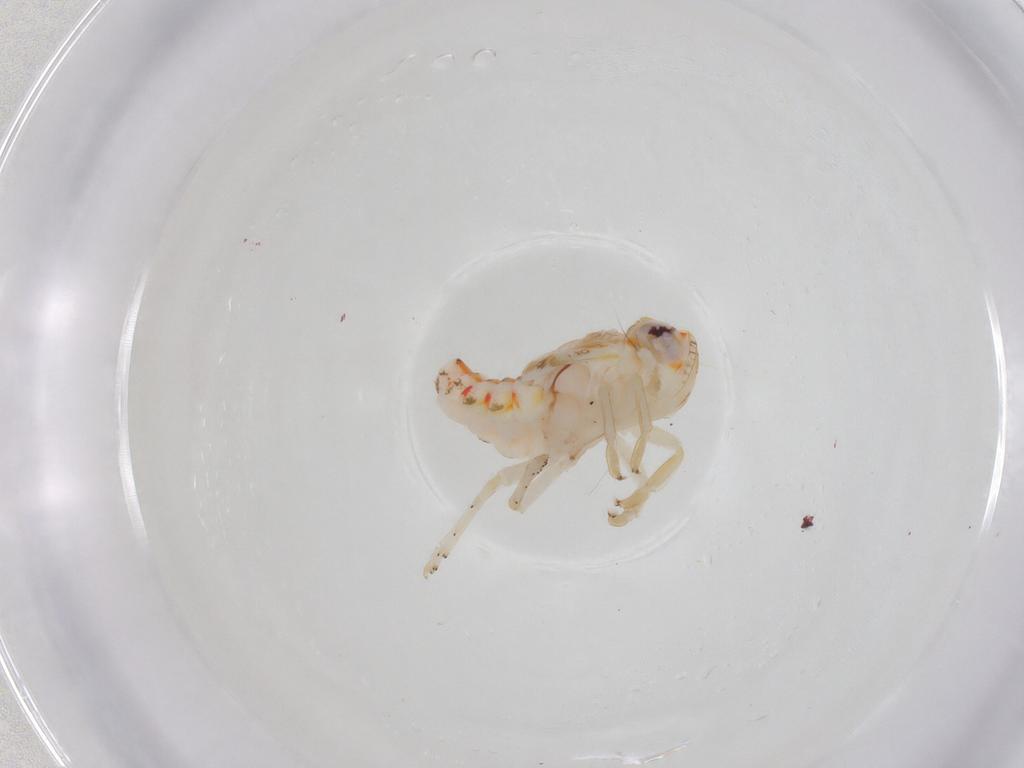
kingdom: Animalia
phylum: Arthropoda
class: Insecta
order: Hemiptera
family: Nogodinidae
